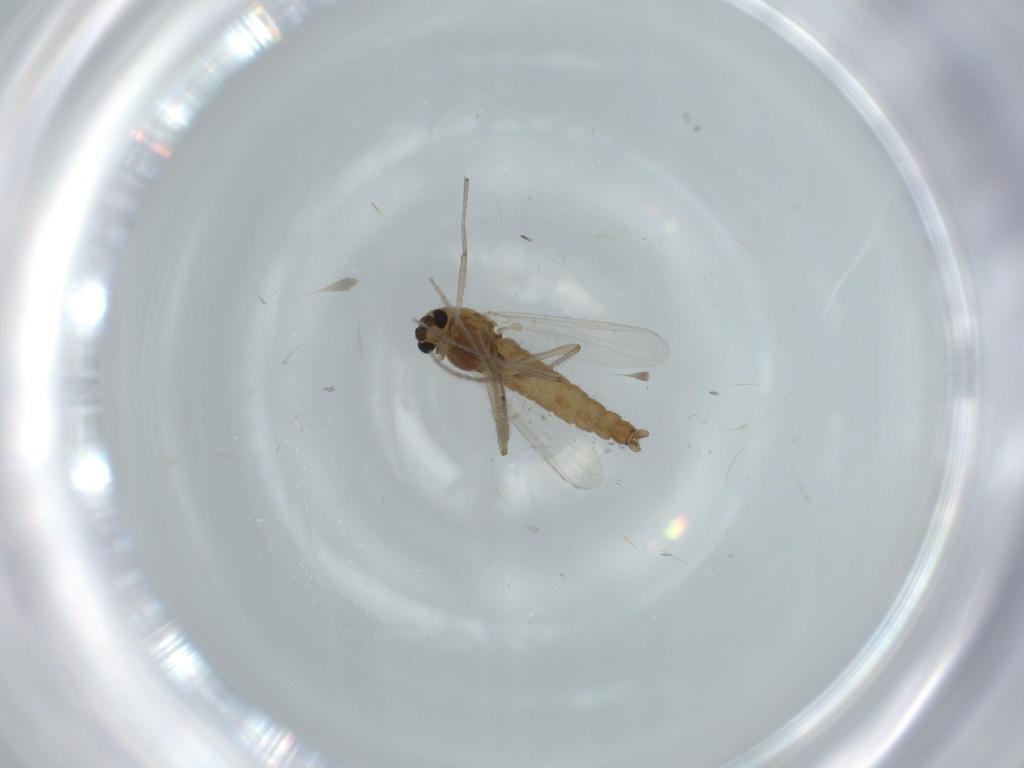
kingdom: Animalia
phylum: Arthropoda
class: Insecta
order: Diptera
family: Chironomidae
